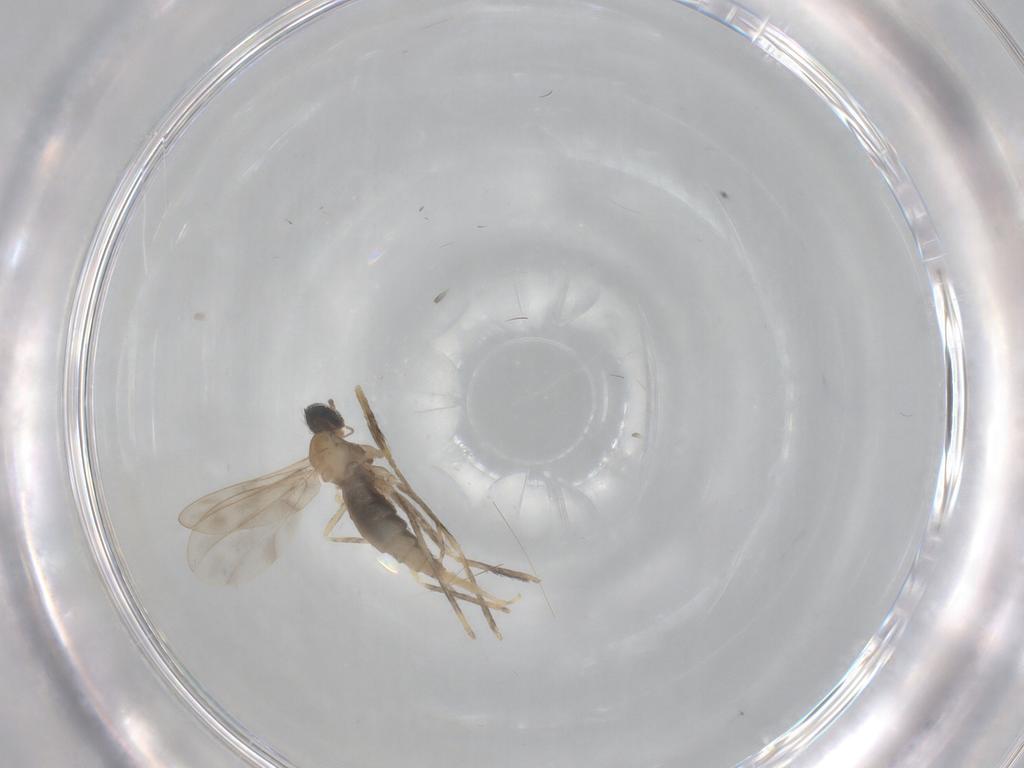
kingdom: Animalia
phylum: Arthropoda
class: Insecta
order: Diptera
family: Cecidomyiidae
